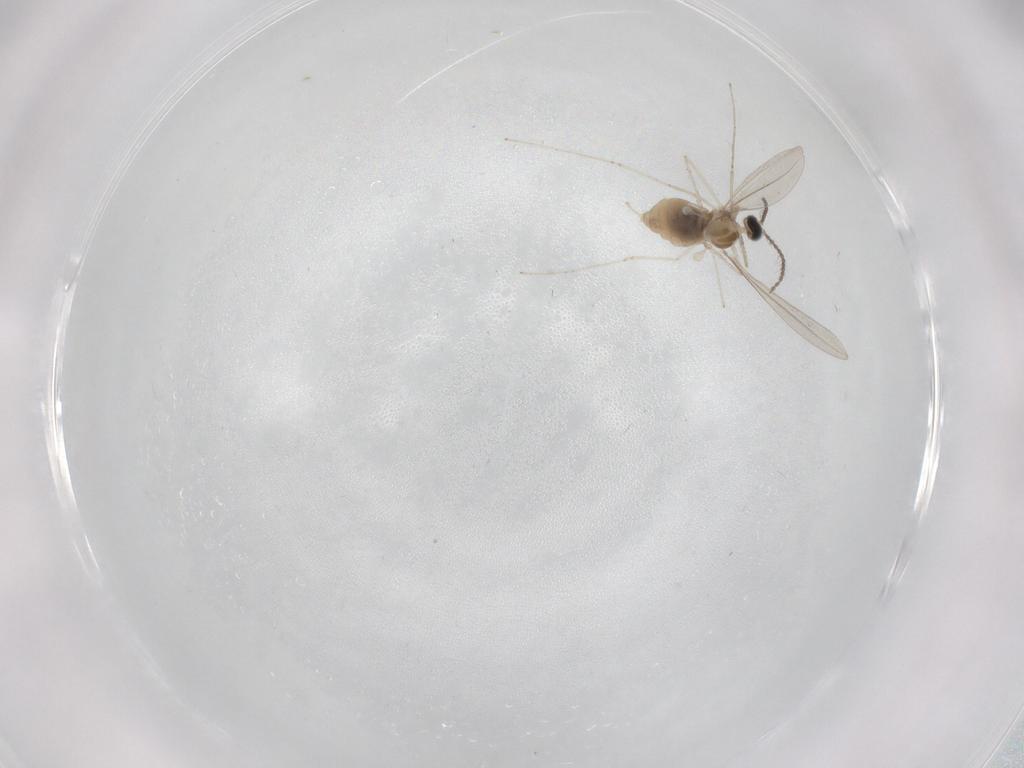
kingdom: Animalia
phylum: Arthropoda
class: Insecta
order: Diptera
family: Cecidomyiidae
